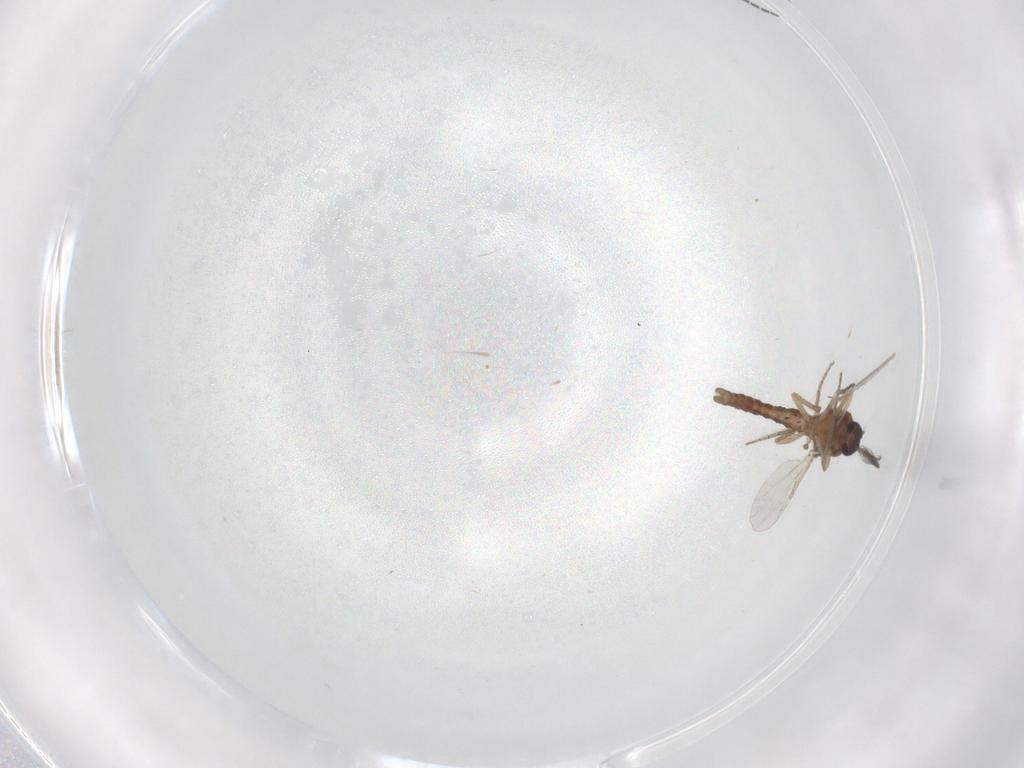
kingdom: Animalia
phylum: Arthropoda
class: Insecta
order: Diptera
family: Ceratopogonidae
